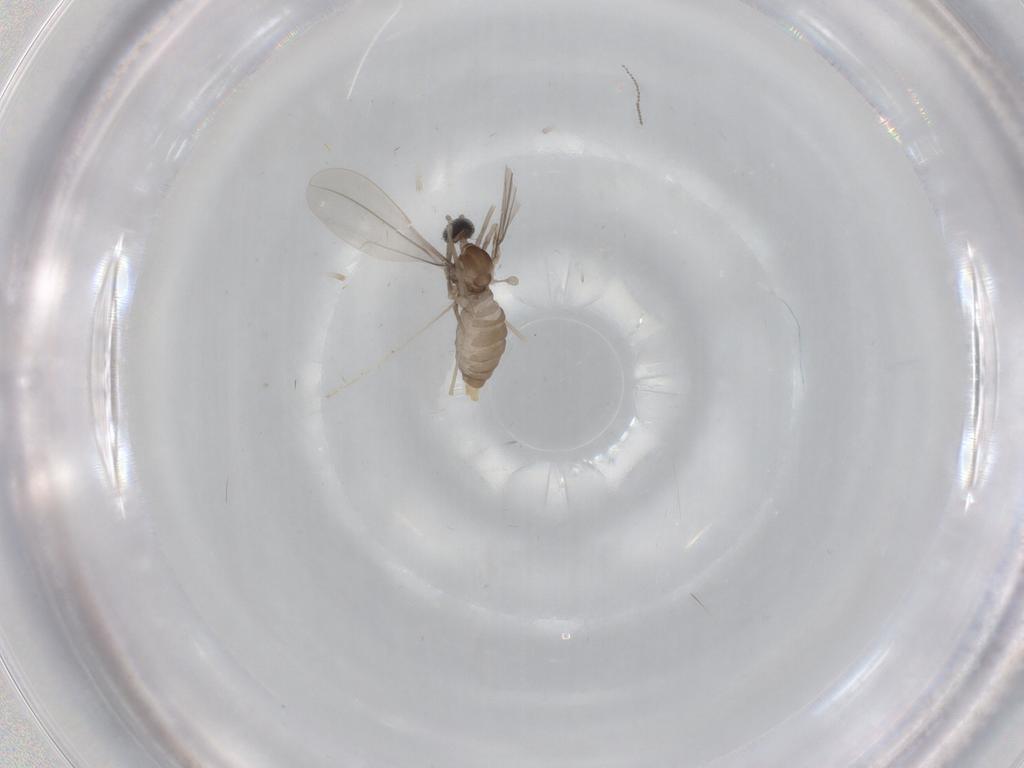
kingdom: Animalia
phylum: Arthropoda
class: Insecta
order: Diptera
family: Cecidomyiidae
